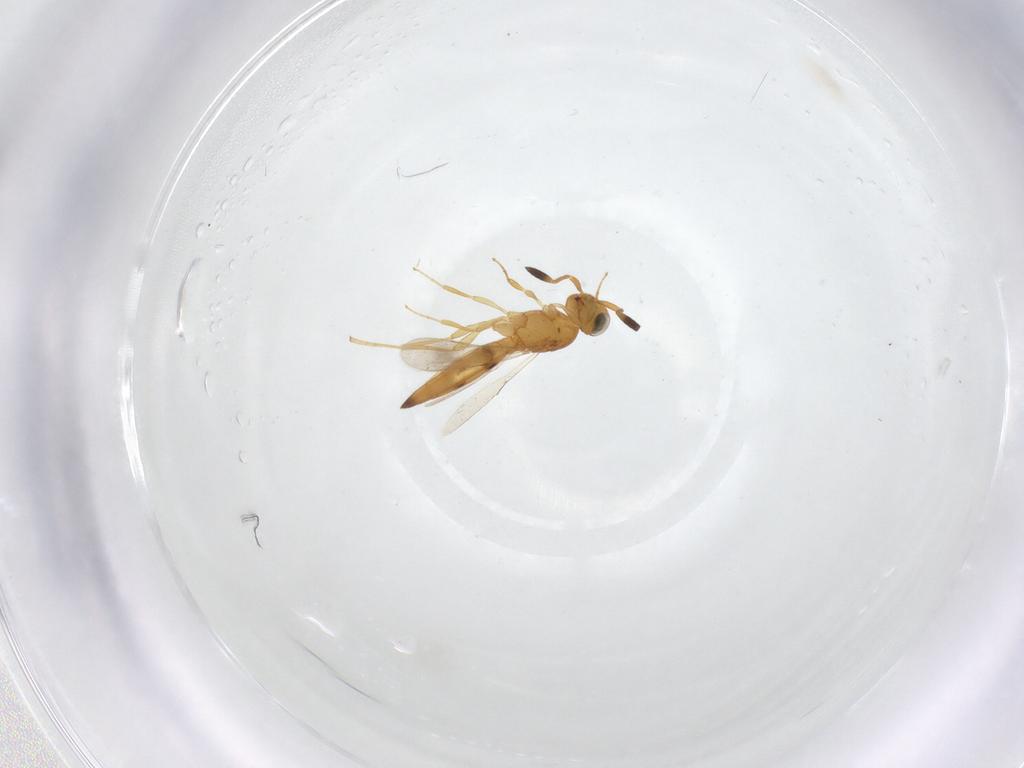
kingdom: Animalia
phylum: Arthropoda
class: Insecta
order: Hymenoptera
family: Scelionidae
